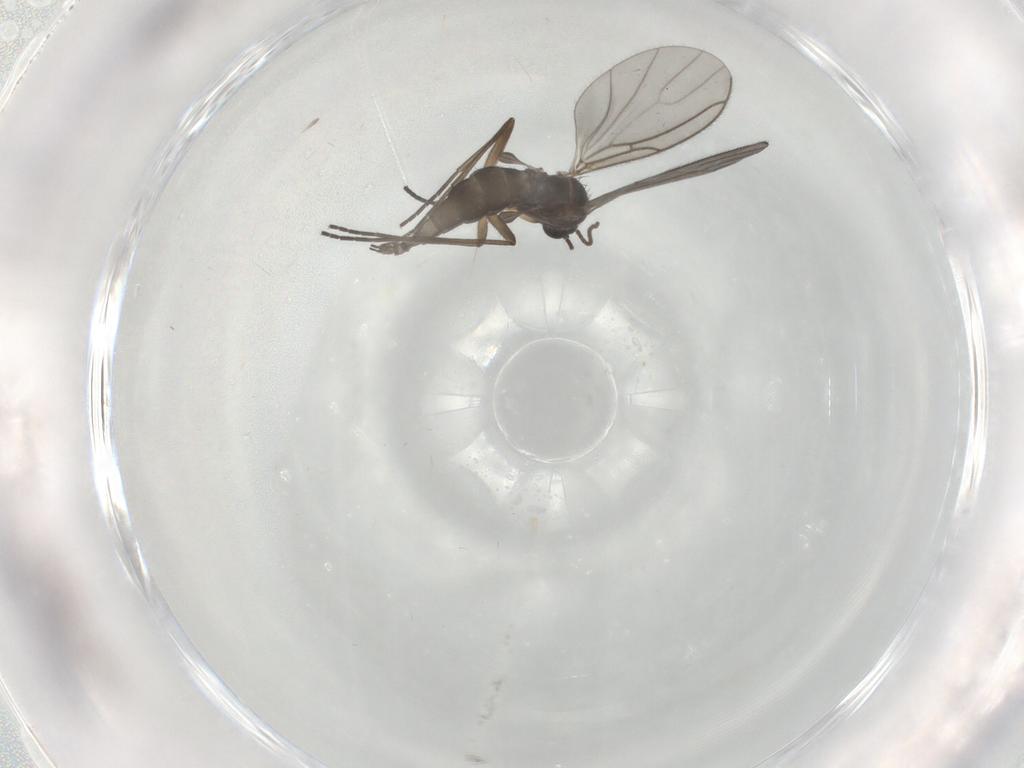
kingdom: Animalia
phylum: Arthropoda
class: Insecta
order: Diptera
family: Sciaridae
